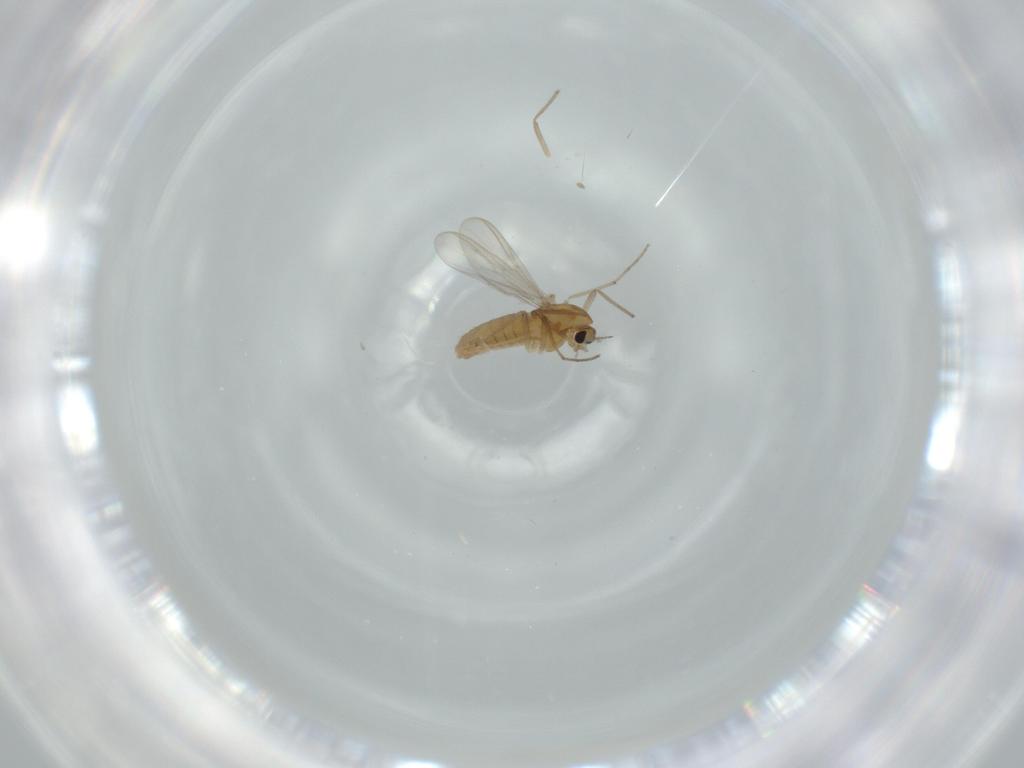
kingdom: Animalia
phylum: Arthropoda
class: Insecta
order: Diptera
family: Chironomidae
